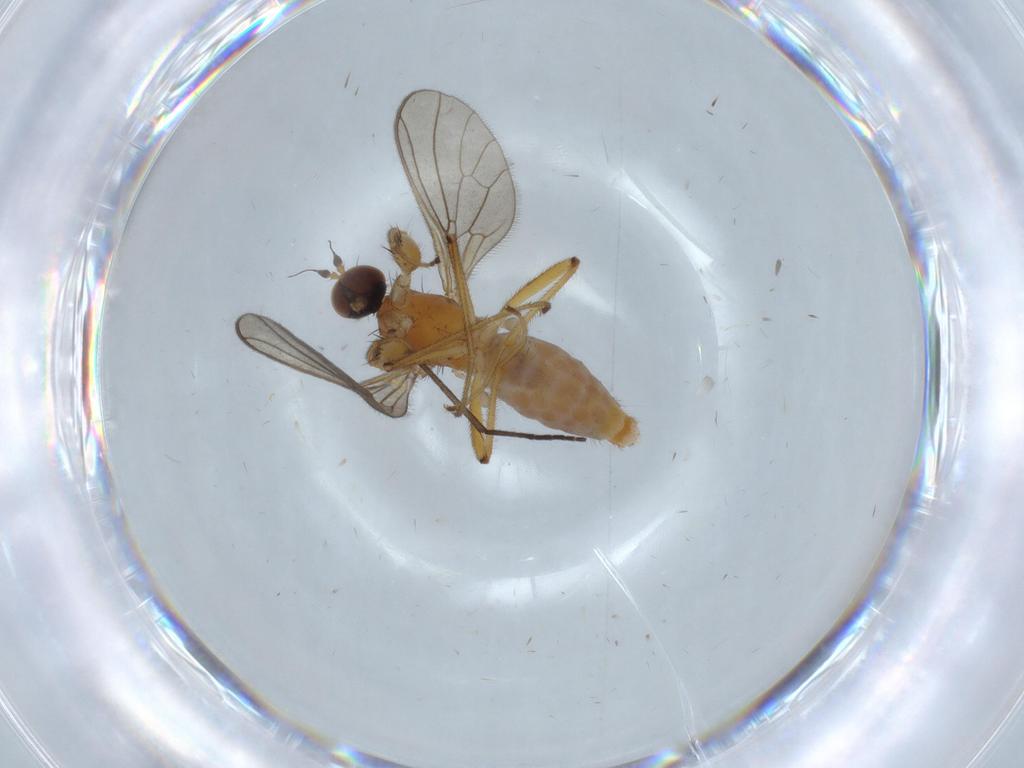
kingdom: Animalia
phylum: Arthropoda
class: Insecta
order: Diptera
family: Empididae
